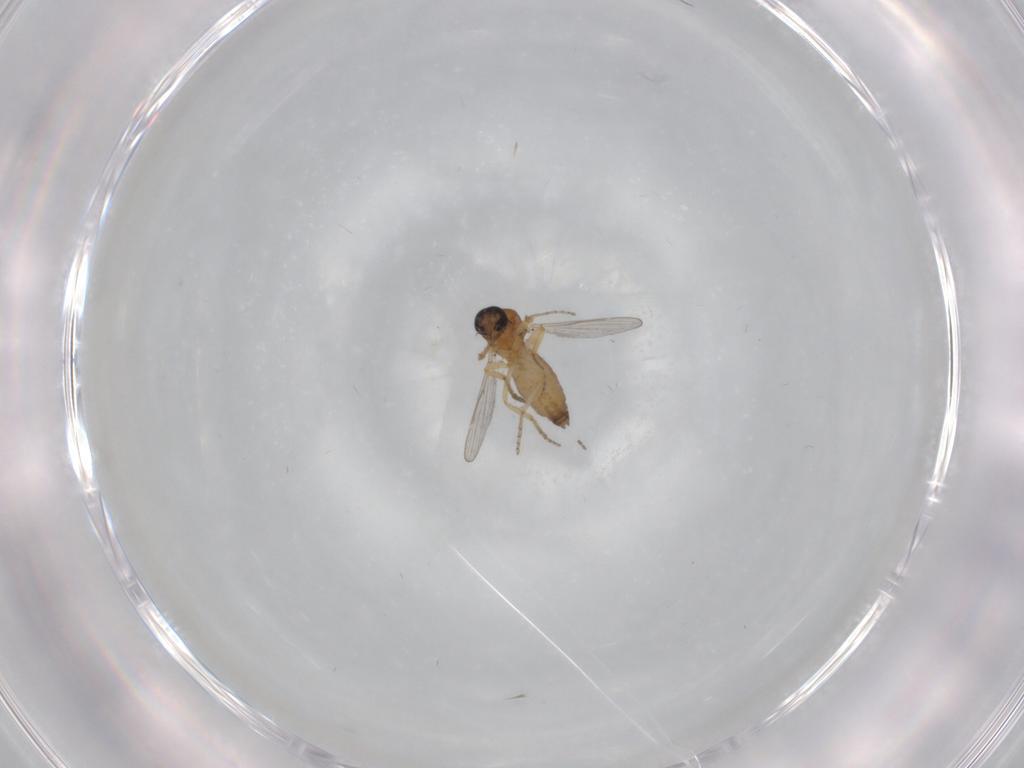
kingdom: Animalia
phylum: Arthropoda
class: Insecta
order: Diptera
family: Ceratopogonidae
